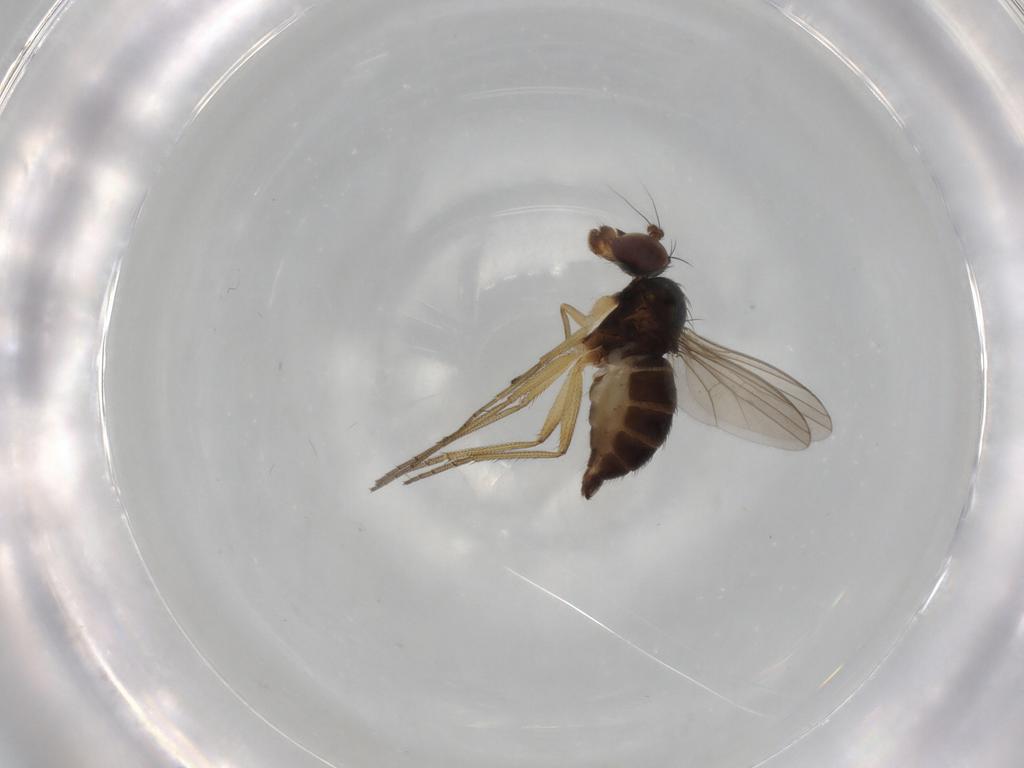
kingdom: Animalia
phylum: Arthropoda
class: Insecta
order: Diptera
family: Dolichopodidae
